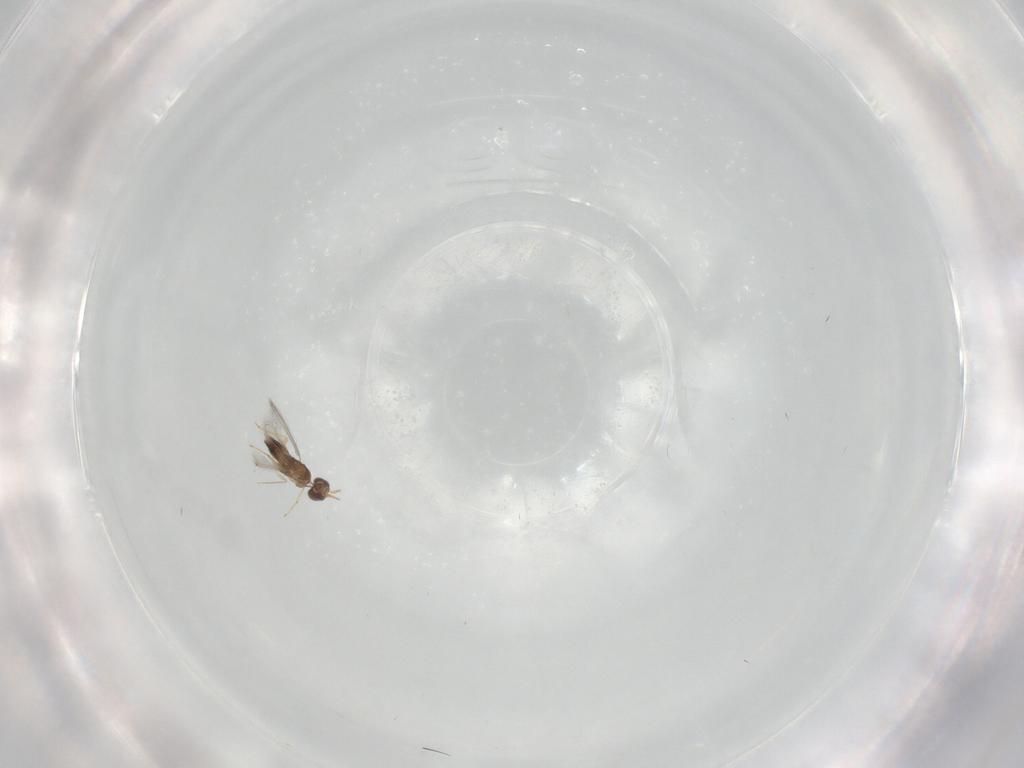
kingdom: Animalia
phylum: Arthropoda
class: Insecta
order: Hymenoptera
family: Mymaridae
